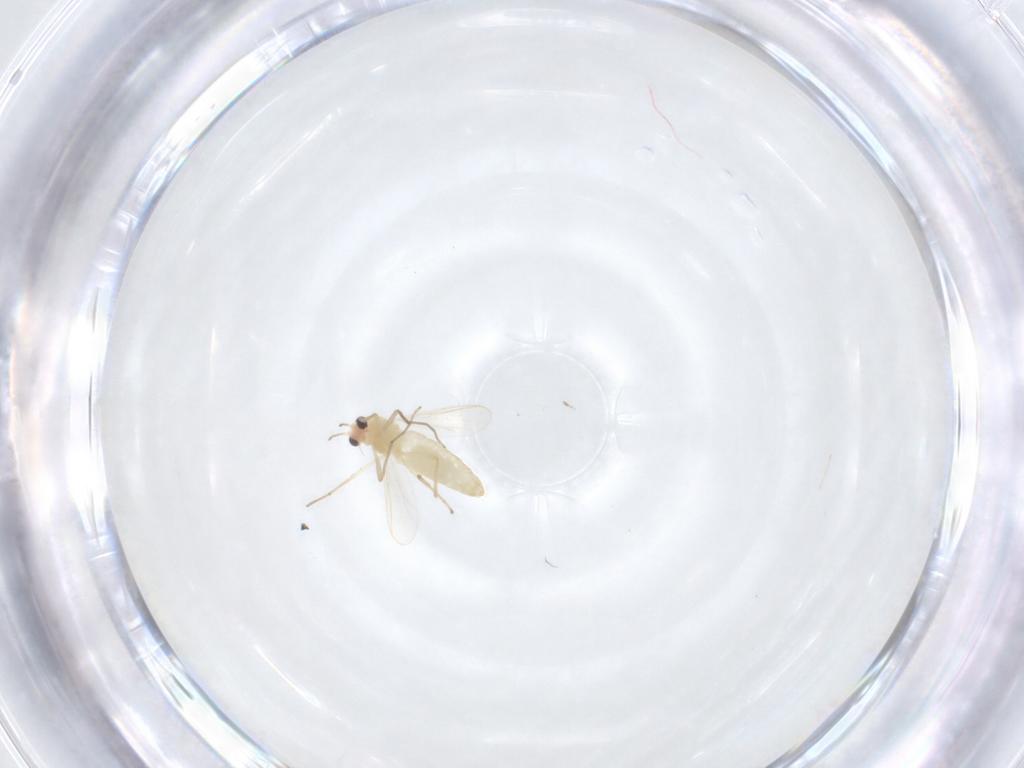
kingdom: Animalia
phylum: Arthropoda
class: Insecta
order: Diptera
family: Chironomidae
